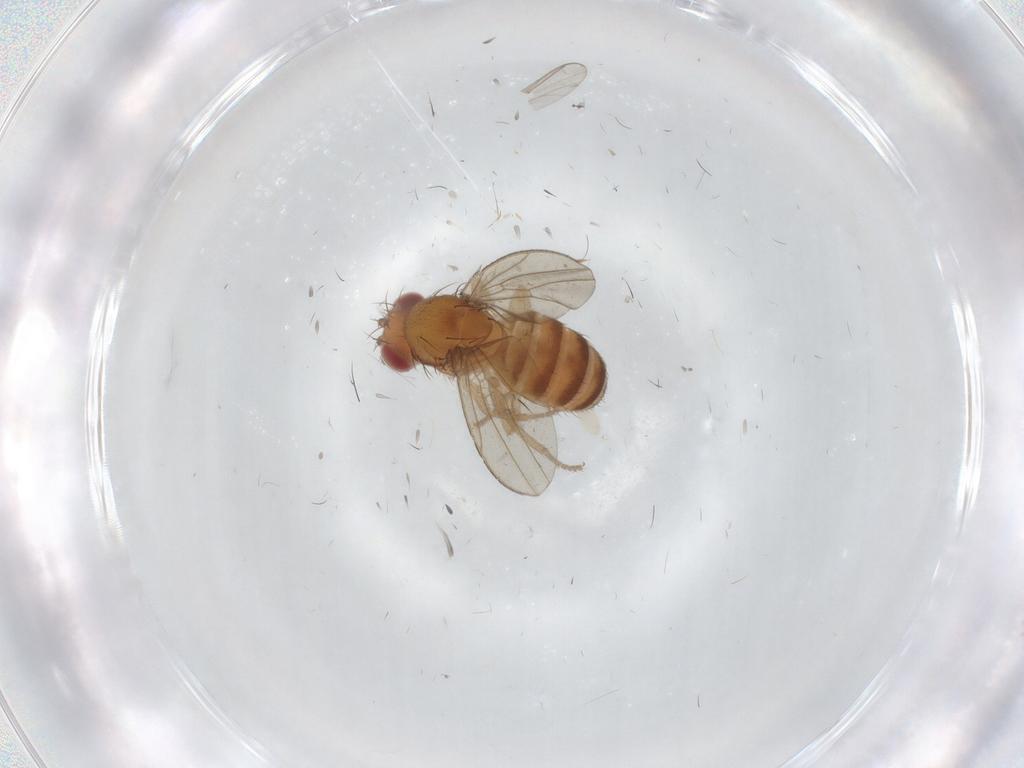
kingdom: Animalia
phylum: Arthropoda
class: Insecta
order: Diptera
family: Drosophilidae
